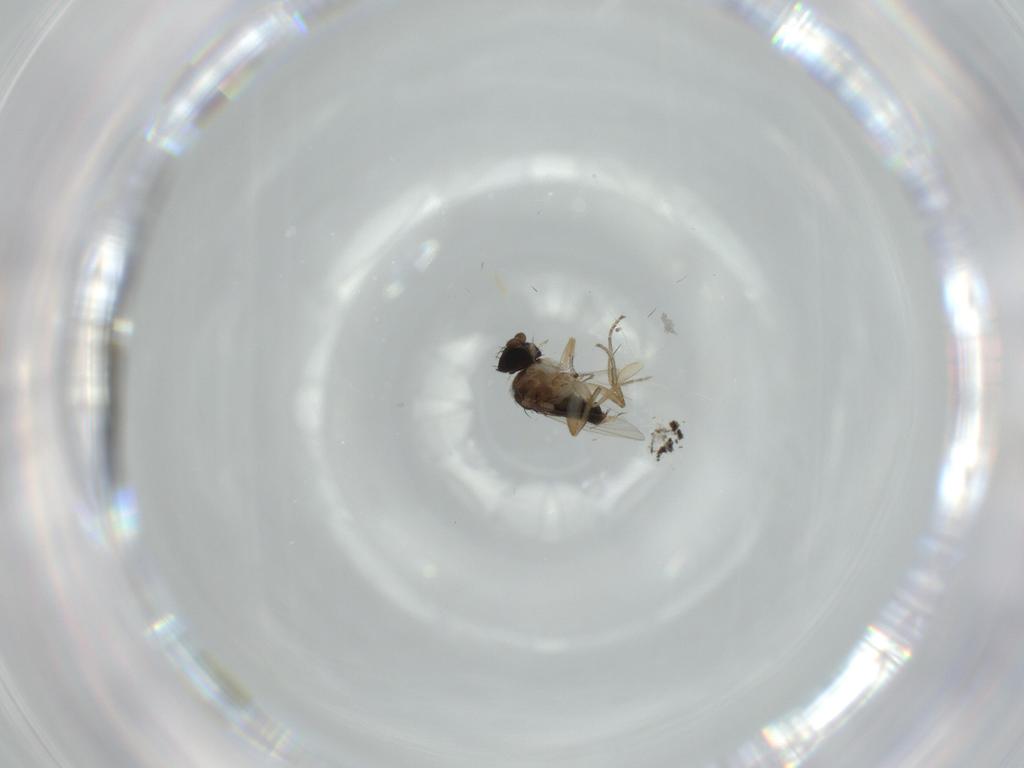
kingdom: Animalia
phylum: Arthropoda
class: Insecta
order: Diptera
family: Phoridae
